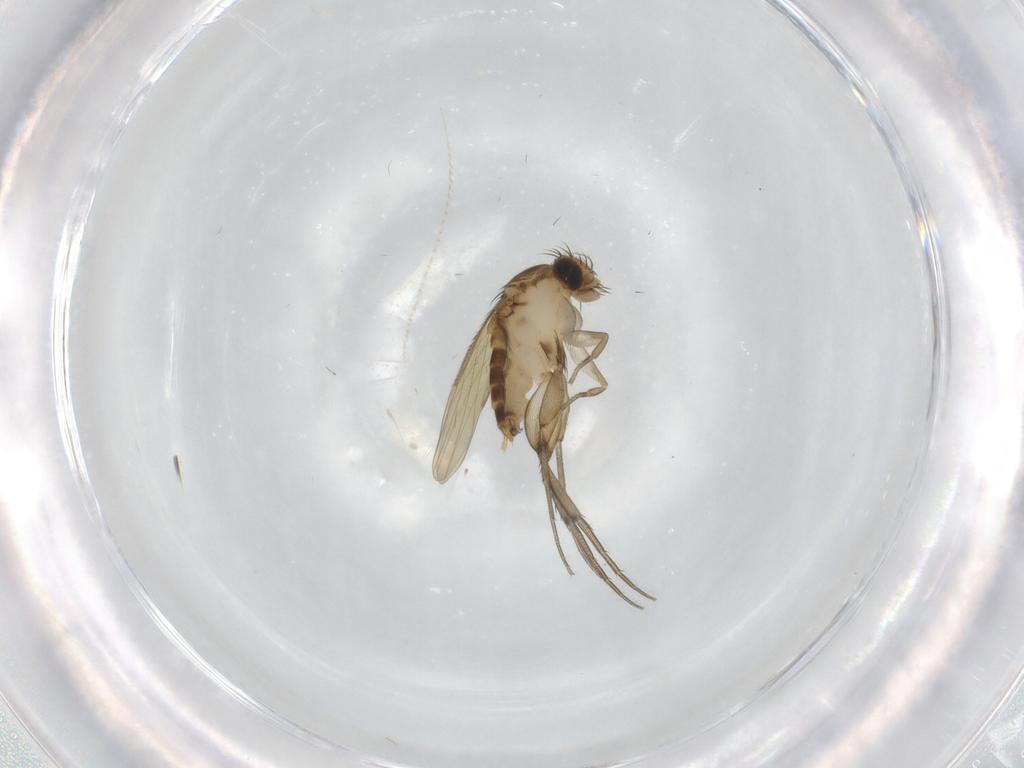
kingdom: Animalia
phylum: Arthropoda
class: Insecta
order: Diptera
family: Phoridae
